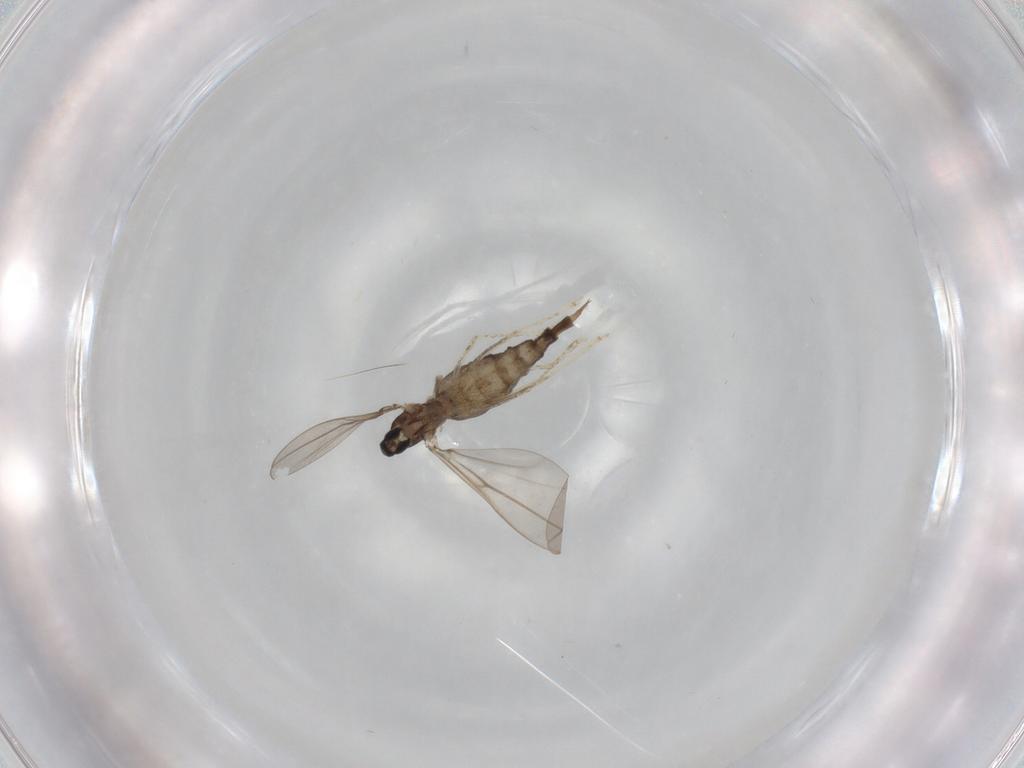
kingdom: Animalia
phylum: Arthropoda
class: Insecta
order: Diptera
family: Cecidomyiidae
